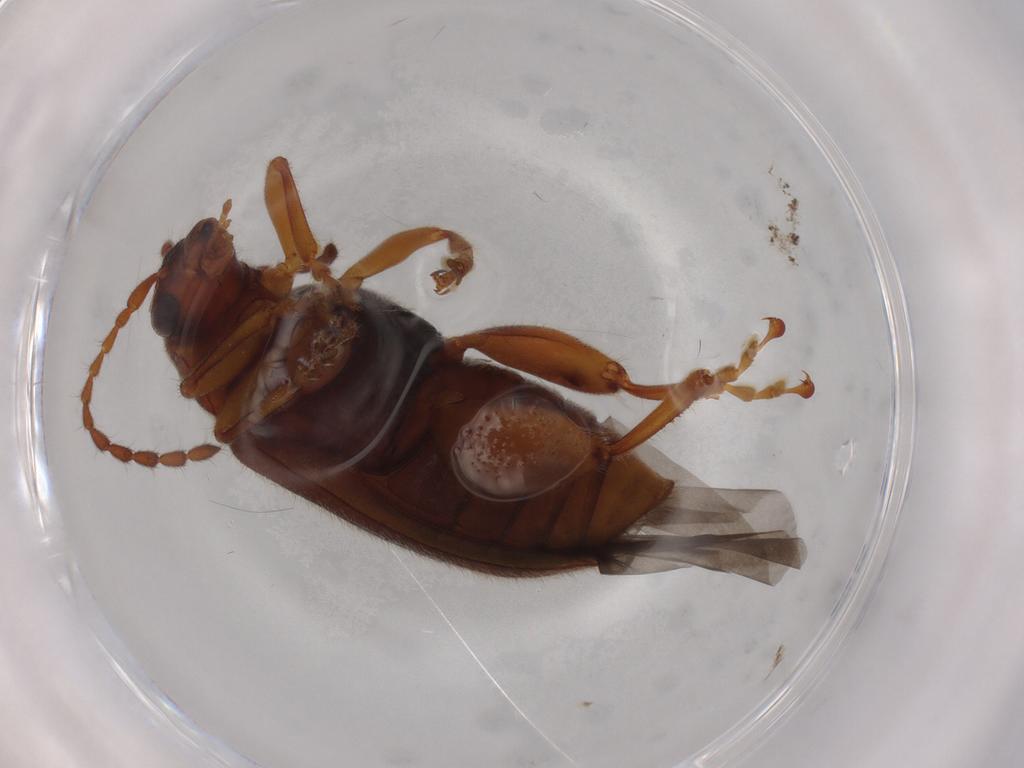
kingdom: Animalia
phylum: Arthropoda
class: Insecta
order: Coleoptera
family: Chrysomelidae
